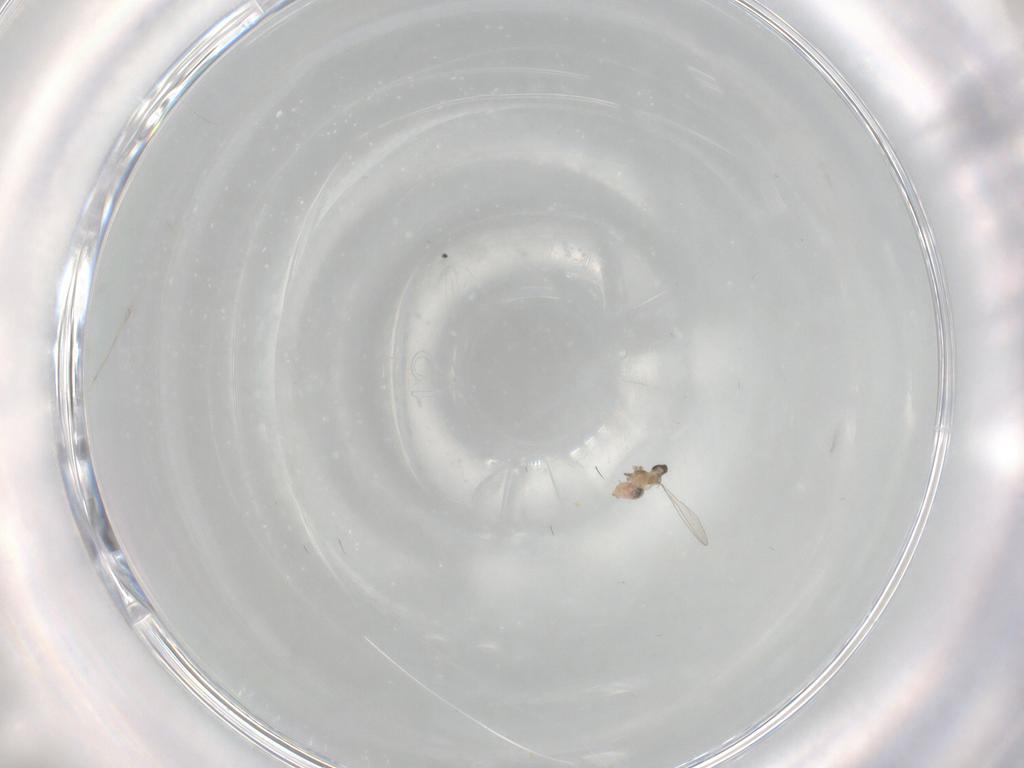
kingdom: Animalia
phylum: Arthropoda
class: Insecta
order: Diptera
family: Cecidomyiidae
